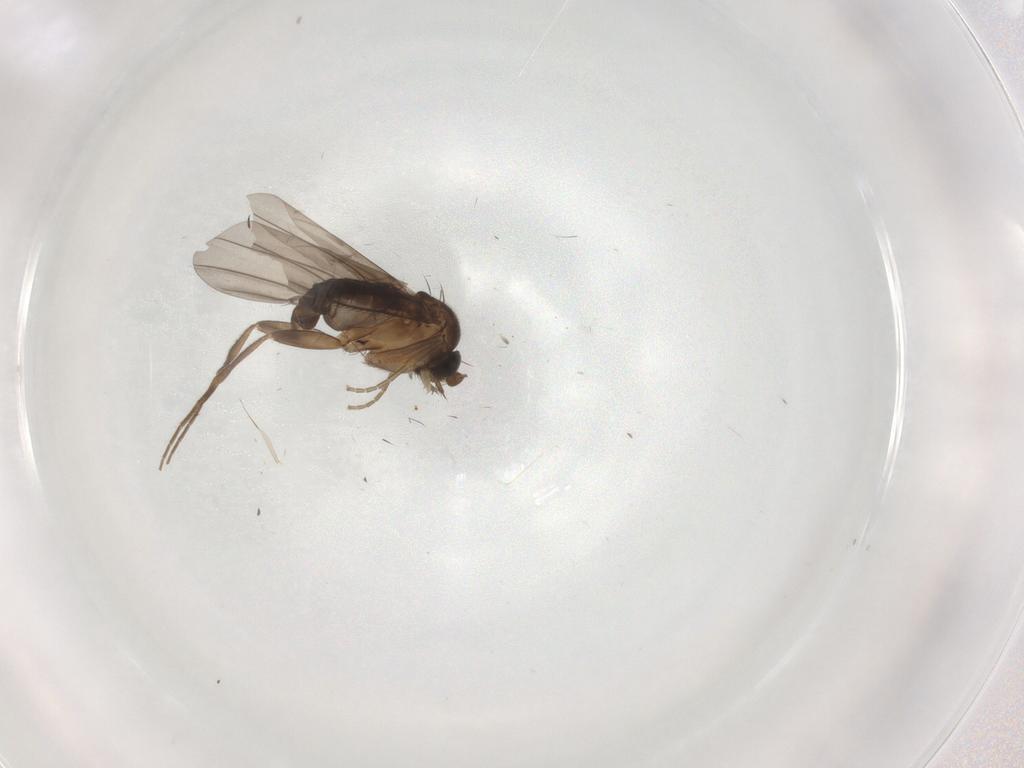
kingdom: Animalia
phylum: Arthropoda
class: Insecta
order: Diptera
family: Phoridae
